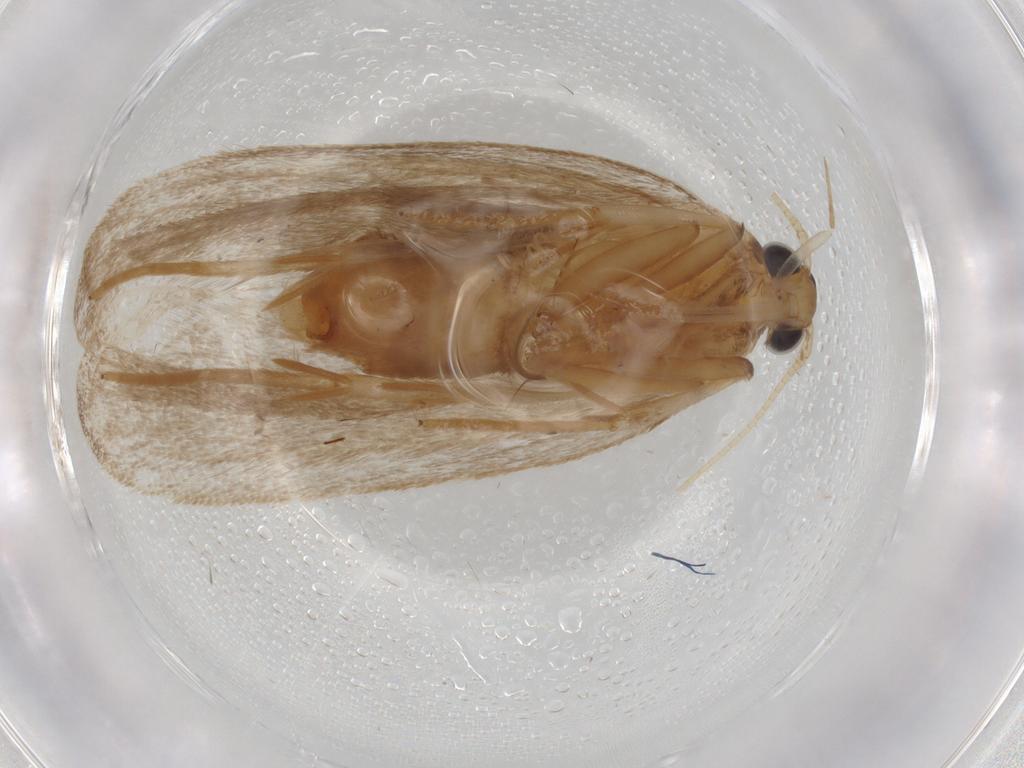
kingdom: Animalia
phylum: Arthropoda
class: Insecta
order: Lepidoptera
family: Lecithoceridae
